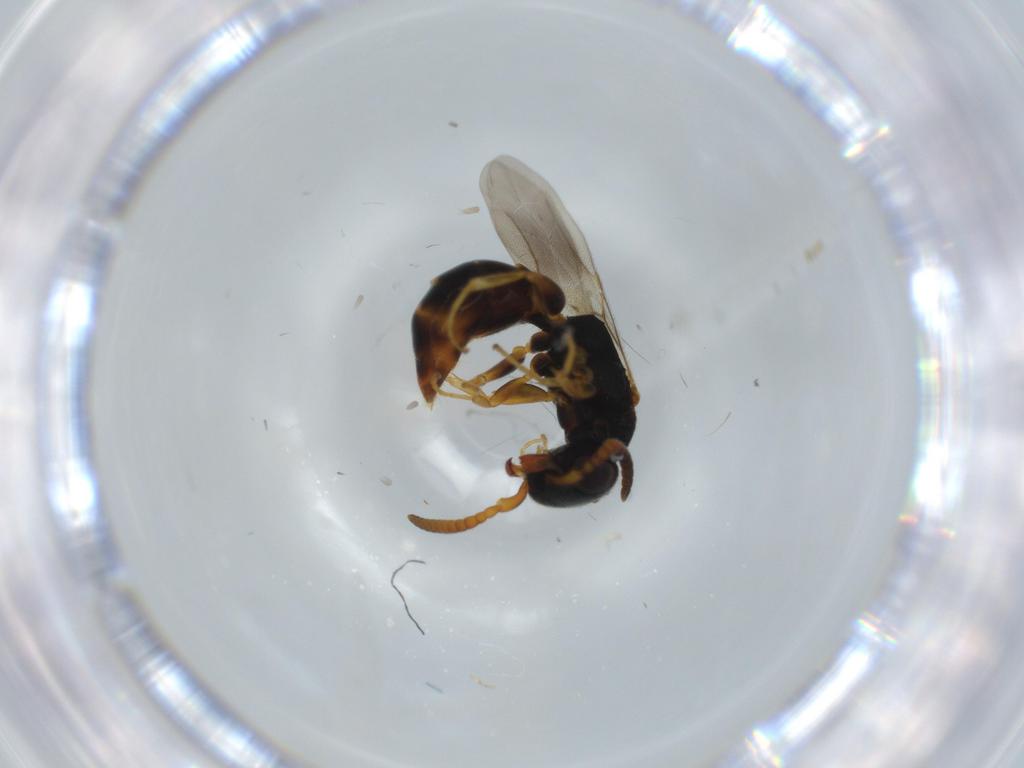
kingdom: Animalia
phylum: Arthropoda
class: Insecta
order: Hymenoptera
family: Bethylidae
